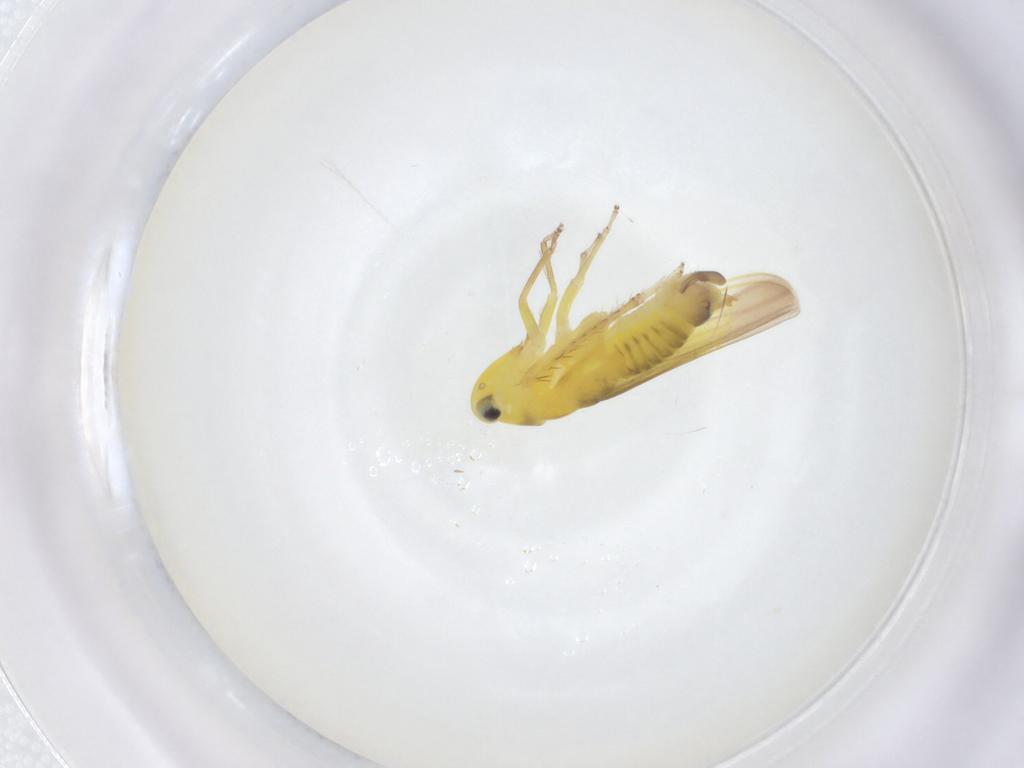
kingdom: Animalia
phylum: Arthropoda
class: Insecta
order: Hemiptera
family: Cicadellidae
